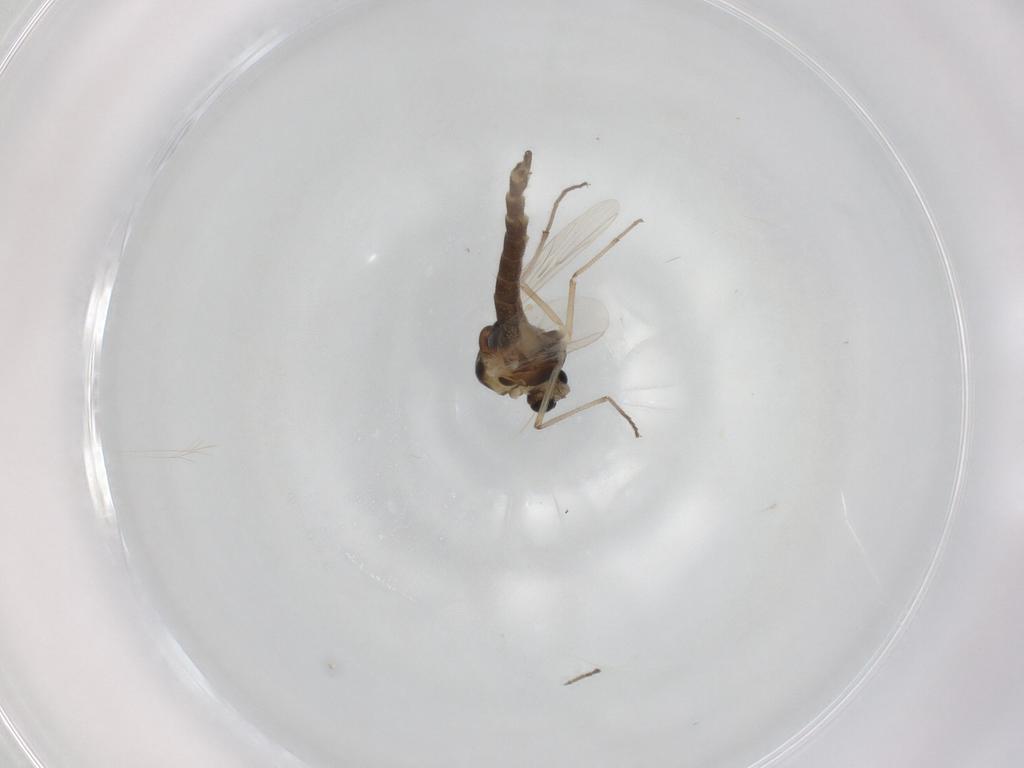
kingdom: Animalia
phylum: Arthropoda
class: Insecta
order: Diptera
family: Chironomidae
